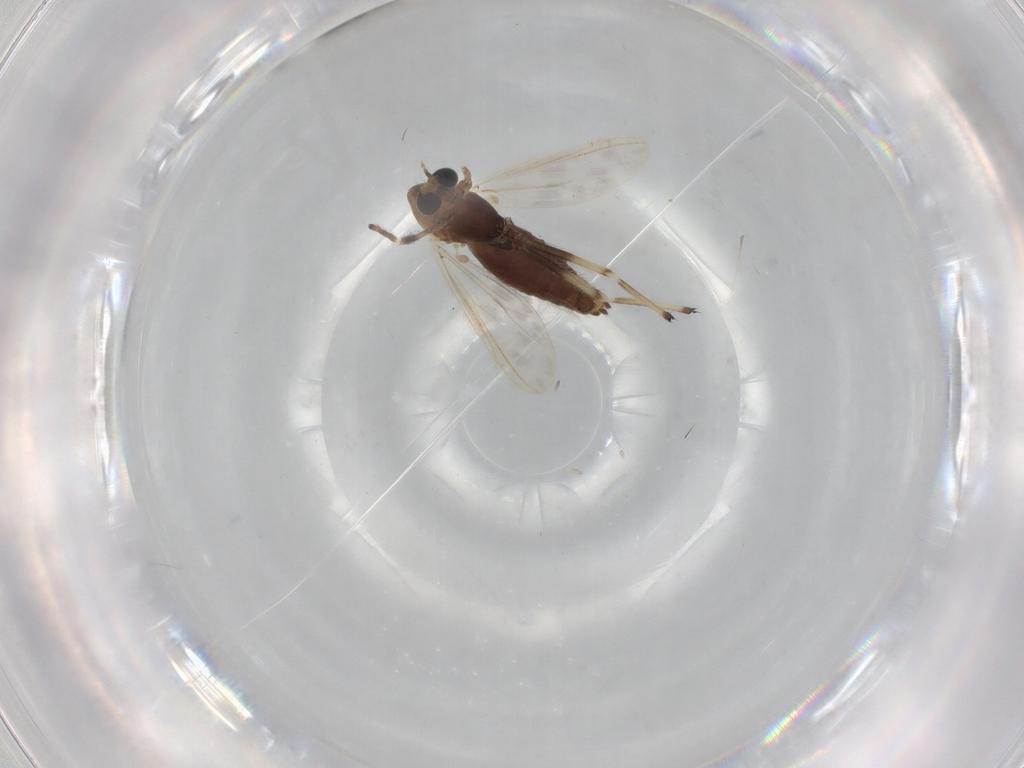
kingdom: Animalia
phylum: Arthropoda
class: Insecta
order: Diptera
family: Chironomidae
